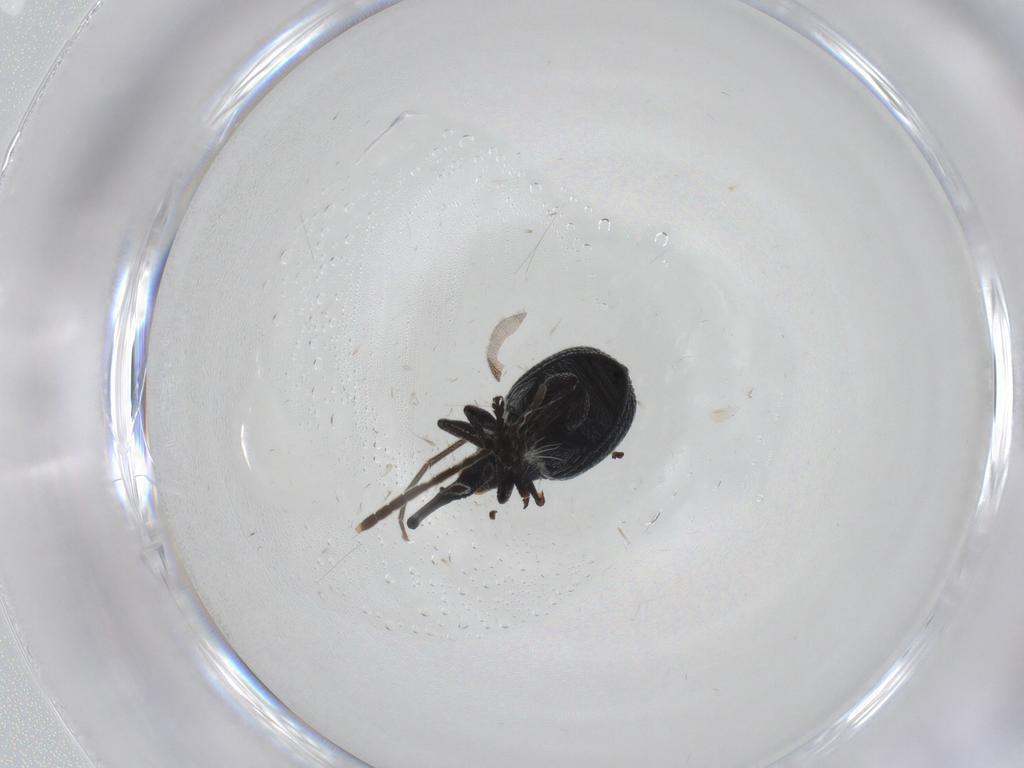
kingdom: Animalia
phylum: Arthropoda
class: Insecta
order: Coleoptera
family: Brentidae
